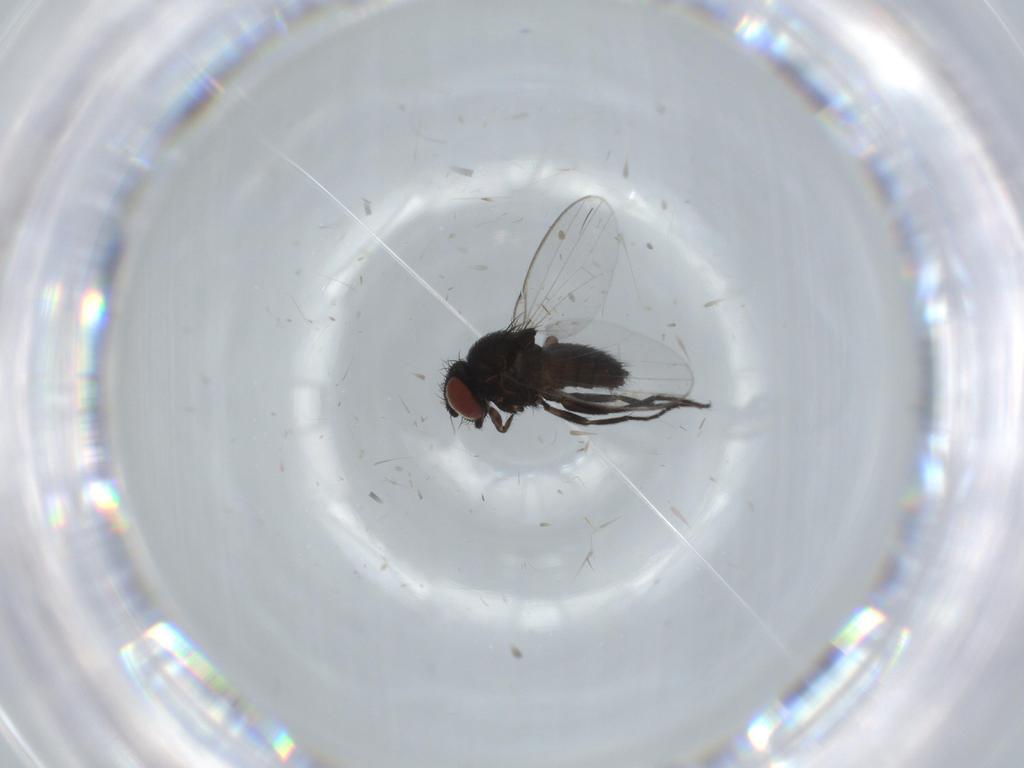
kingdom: Animalia
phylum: Arthropoda
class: Insecta
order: Diptera
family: Milichiidae
